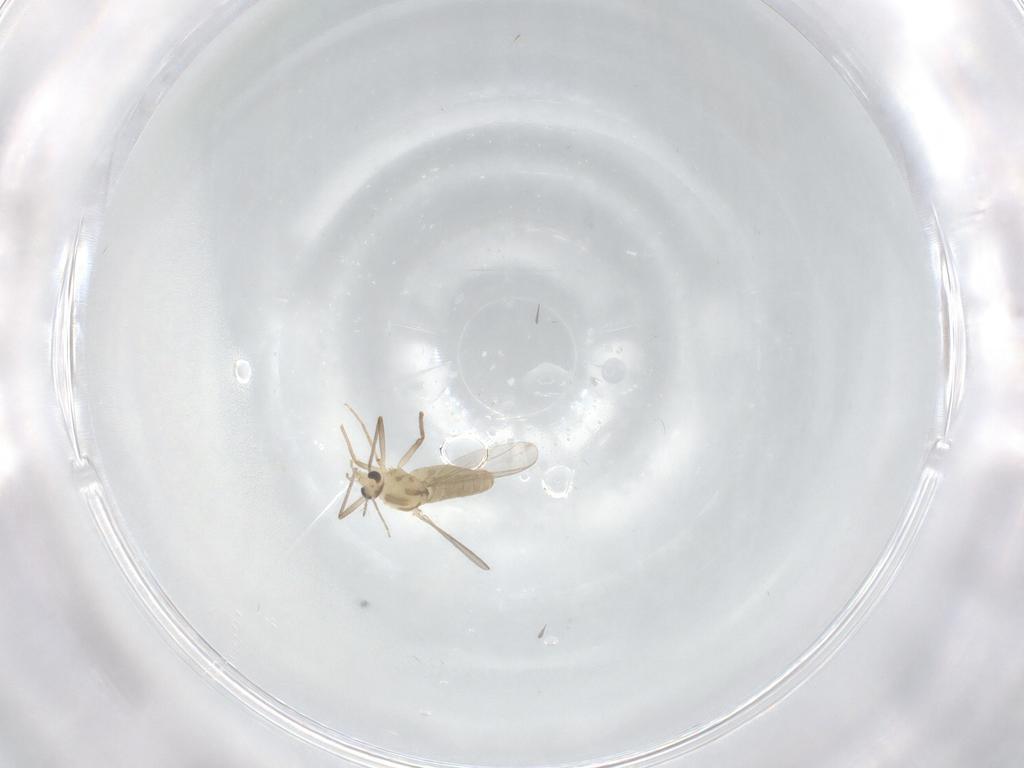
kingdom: Animalia
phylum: Arthropoda
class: Insecta
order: Diptera
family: Chironomidae
